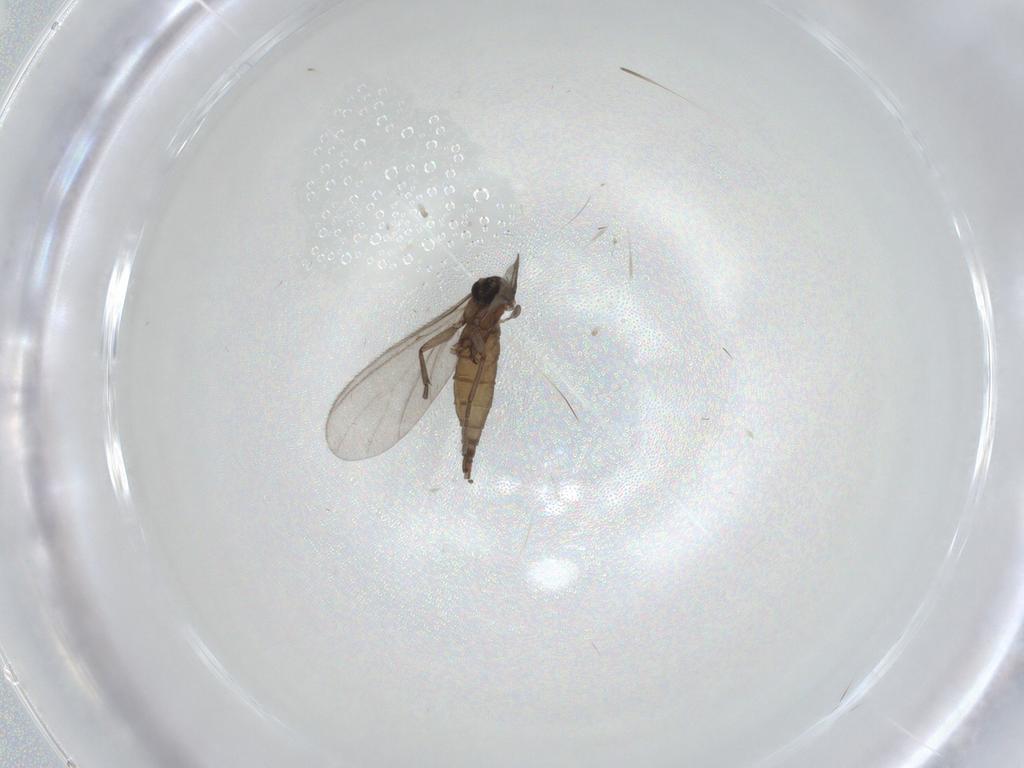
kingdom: Animalia
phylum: Arthropoda
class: Insecta
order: Diptera
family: Sciaridae
